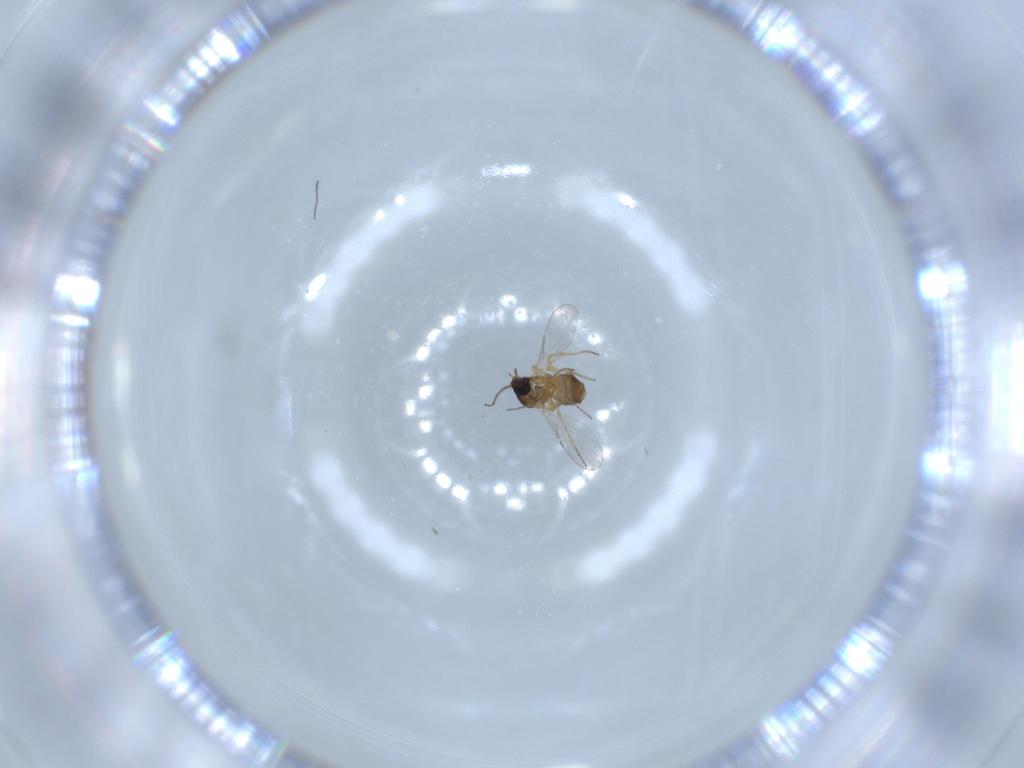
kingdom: Animalia
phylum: Arthropoda
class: Insecta
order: Diptera
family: Ceratopogonidae
